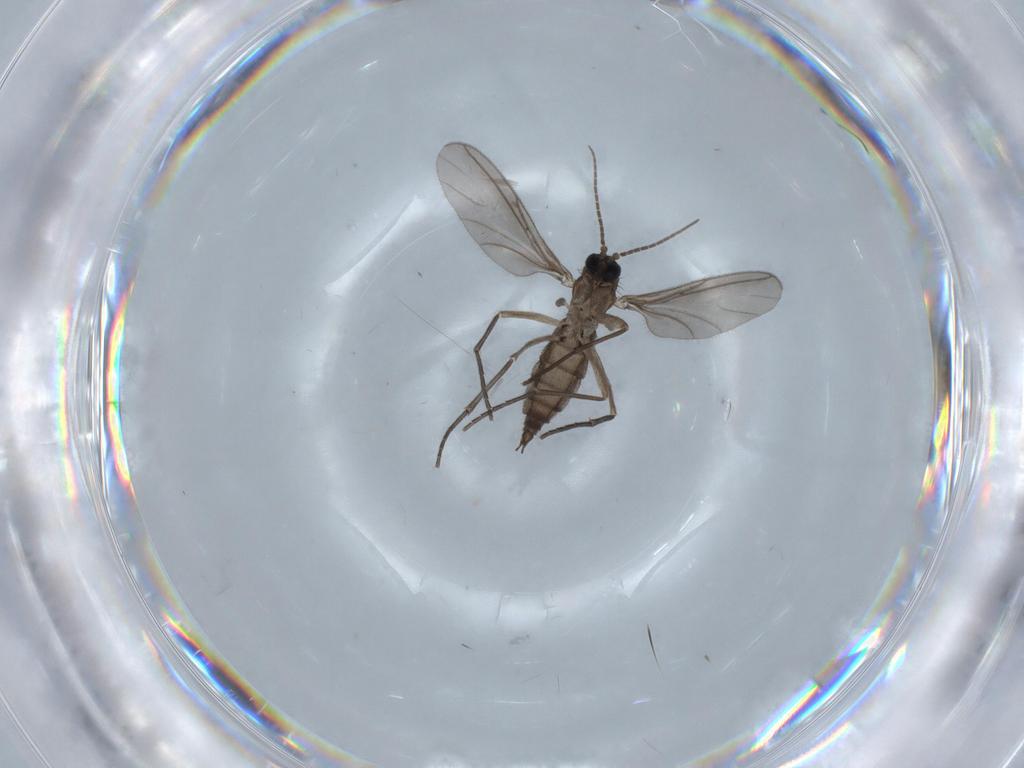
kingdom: Animalia
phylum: Arthropoda
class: Insecta
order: Diptera
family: Sciaridae
